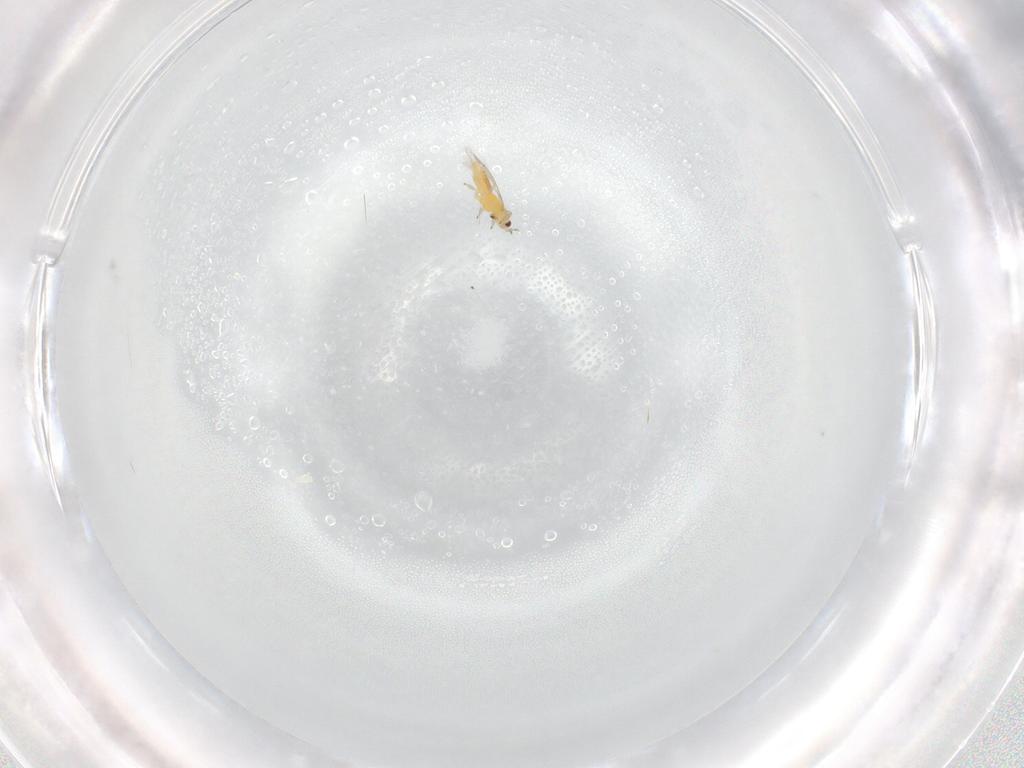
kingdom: Animalia
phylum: Arthropoda
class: Insecta
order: Thysanoptera
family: Thripidae
